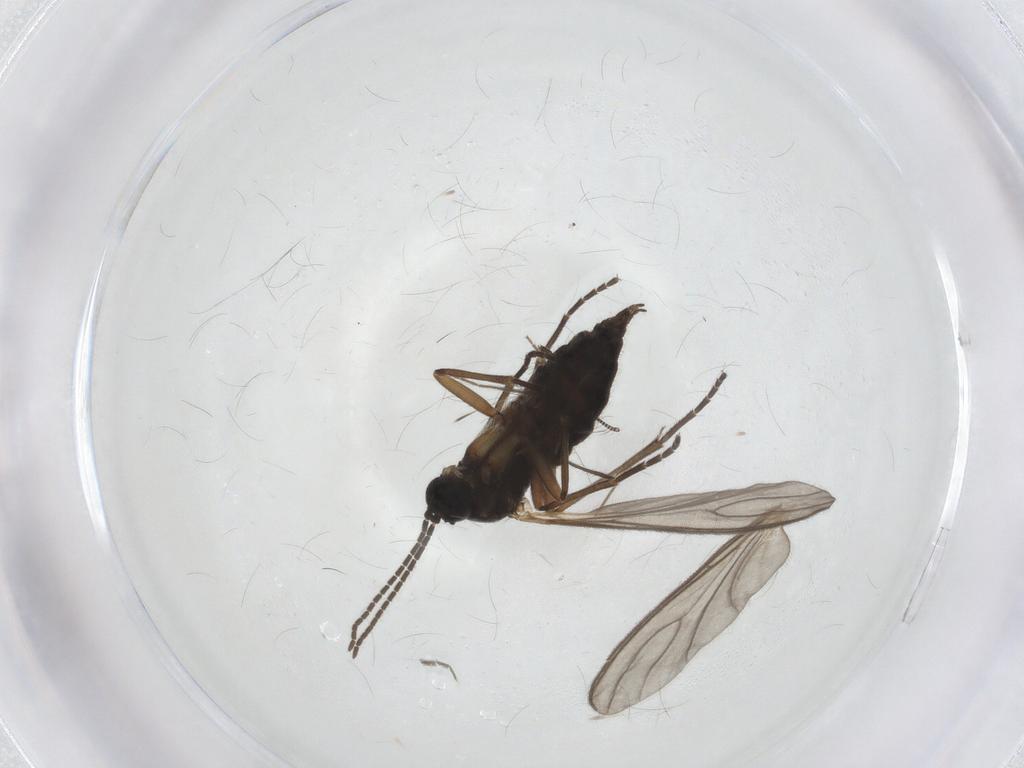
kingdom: Animalia
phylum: Arthropoda
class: Insecta
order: Diptera
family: Sciaridae
